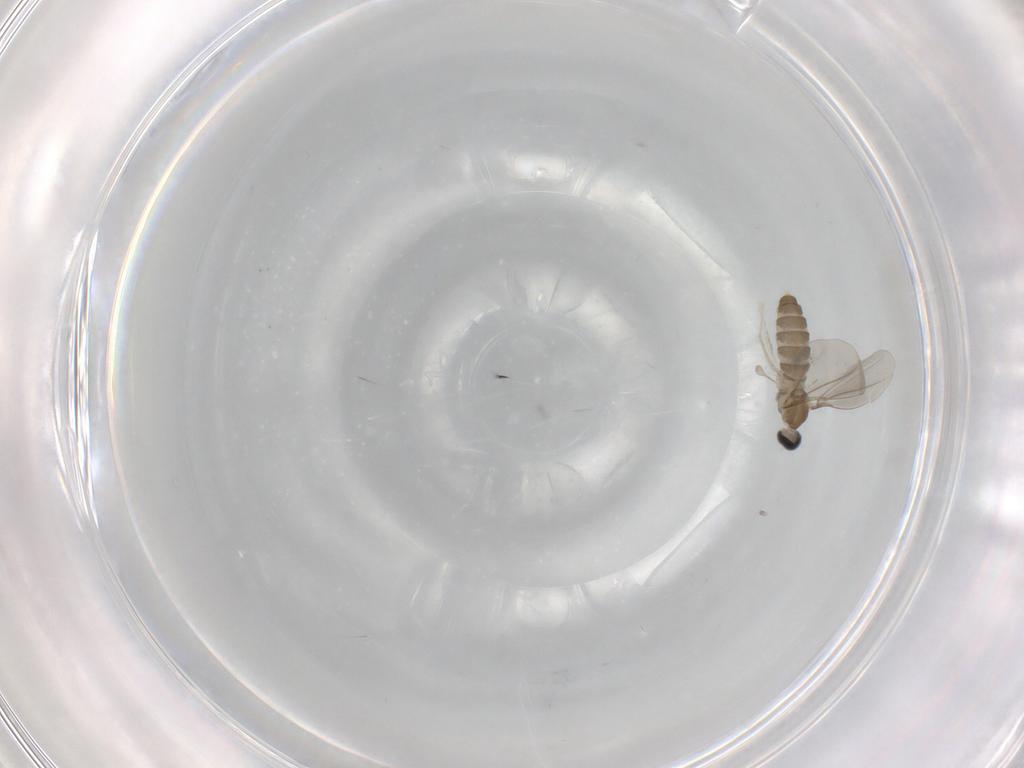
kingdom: Animalia
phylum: Arthropoda
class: Insecta
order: Diptera
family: Cecidomyiidae
